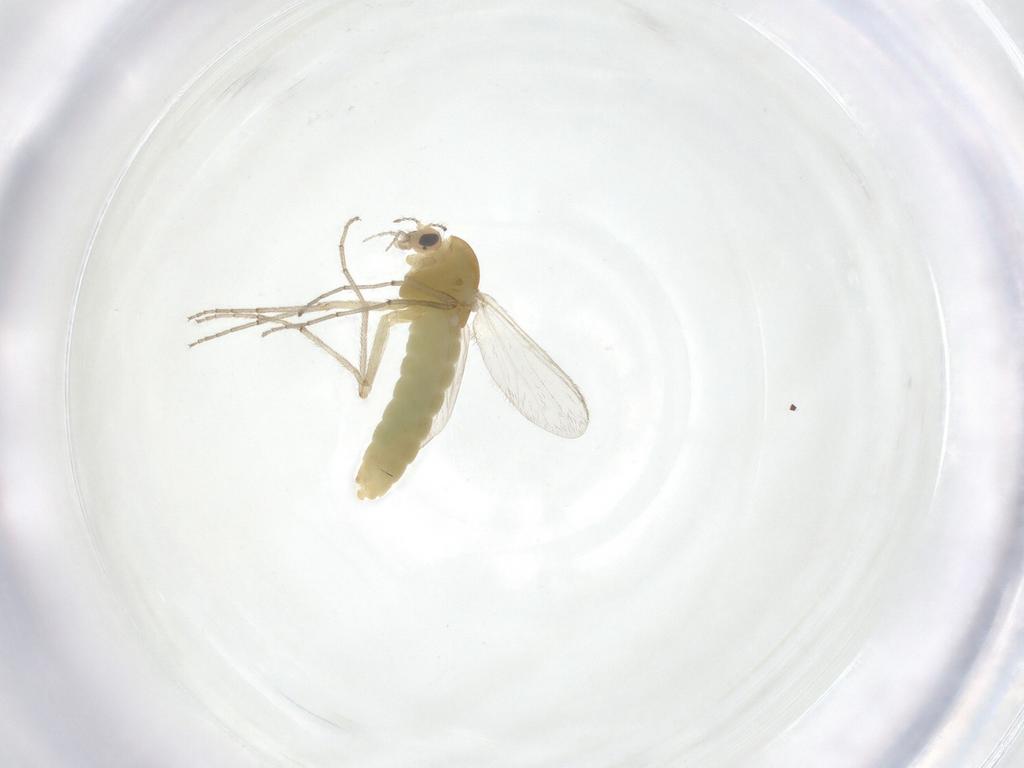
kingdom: Animalia
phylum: Arthropoda
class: Insecta
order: Diptera
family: Chironomidae
